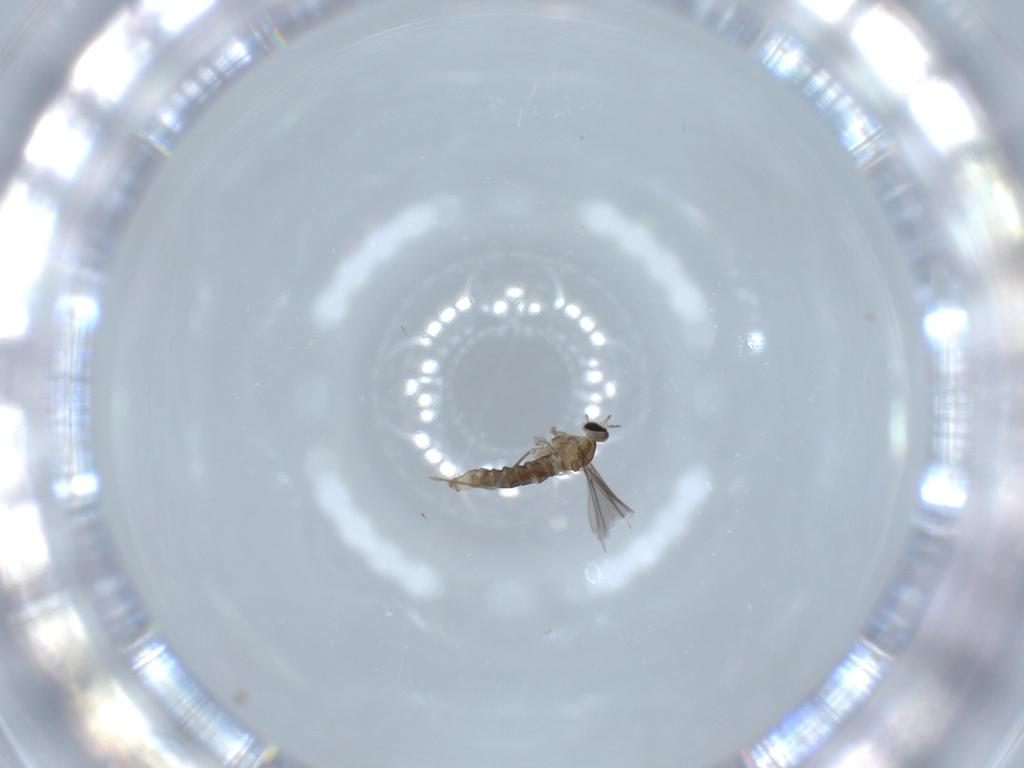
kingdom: Animalia
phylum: Arthropoda
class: Insecta
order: Diptera
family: Cecidomyiidae
